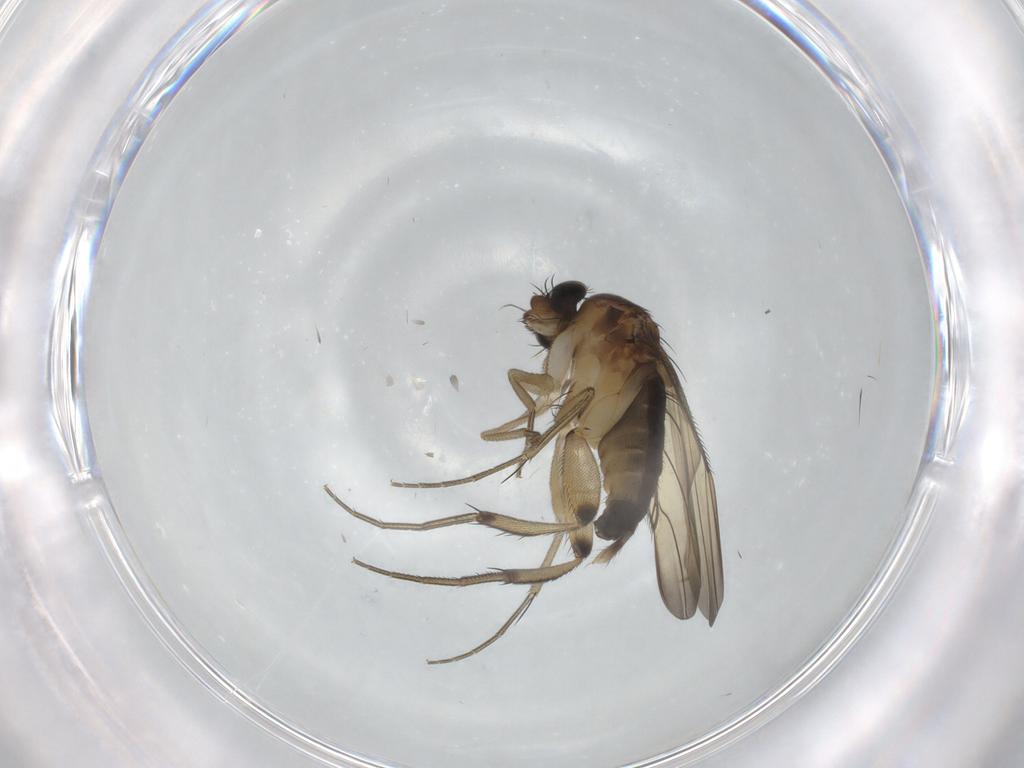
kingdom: Animalia
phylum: Arthropoda
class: Insecta
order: Diptera
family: Phoridae
